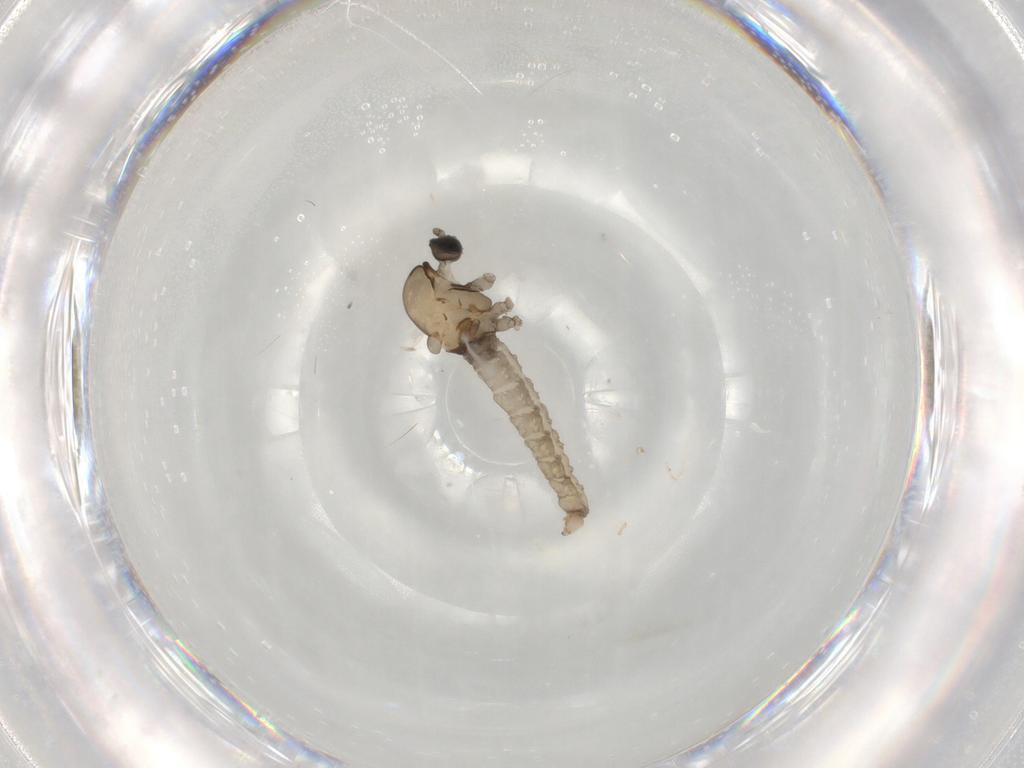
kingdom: Animalia
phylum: Arthropoda
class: Insecta
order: Diptera
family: Cecidomyiidae
